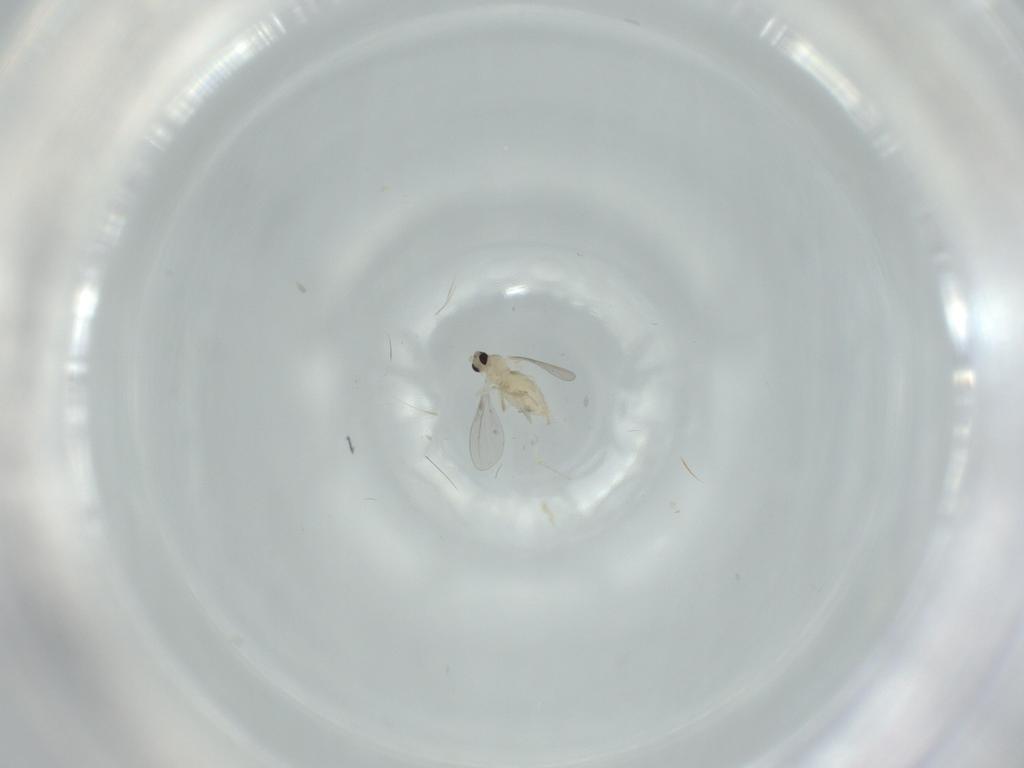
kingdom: Animalia
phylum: Arthropoda
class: Insecta
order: Diptera
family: Cecidomyiidae
